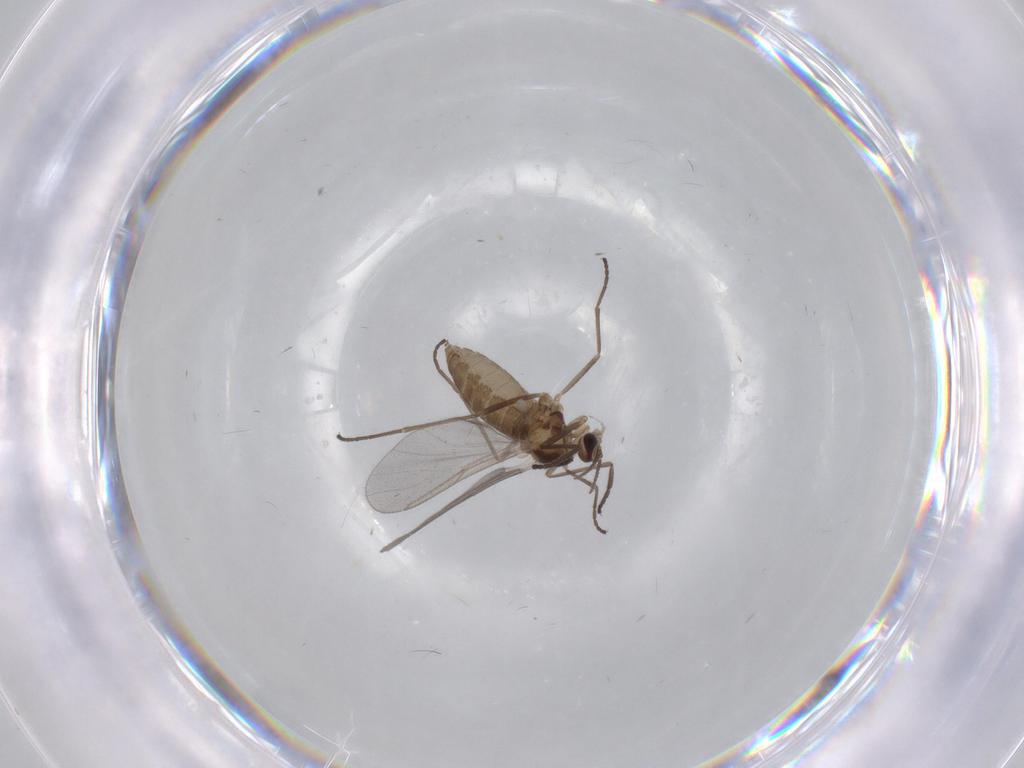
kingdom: Animalia
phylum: Arthropoda
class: Insecta
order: Diptera
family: Cecidomyiidae
